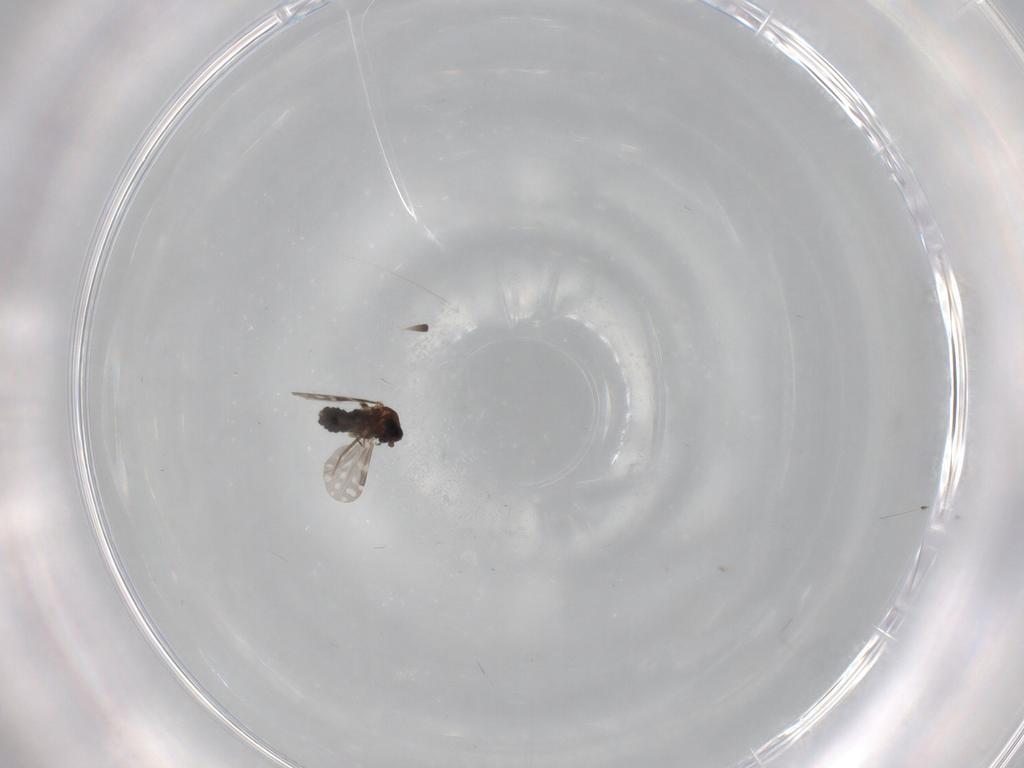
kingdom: Animalia
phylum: Arthropoda
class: Insecta
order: Diptera
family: Ceratopogonidae
